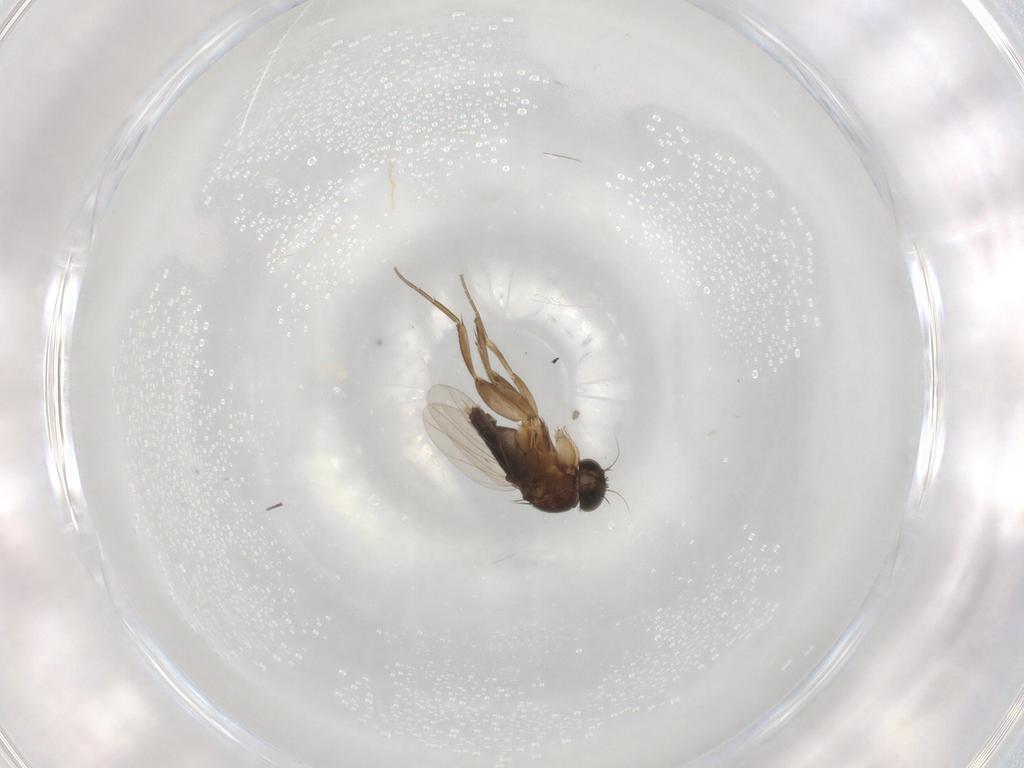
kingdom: Animalia
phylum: Arthropoda
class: Insecta
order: Diptera
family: Phoridae
